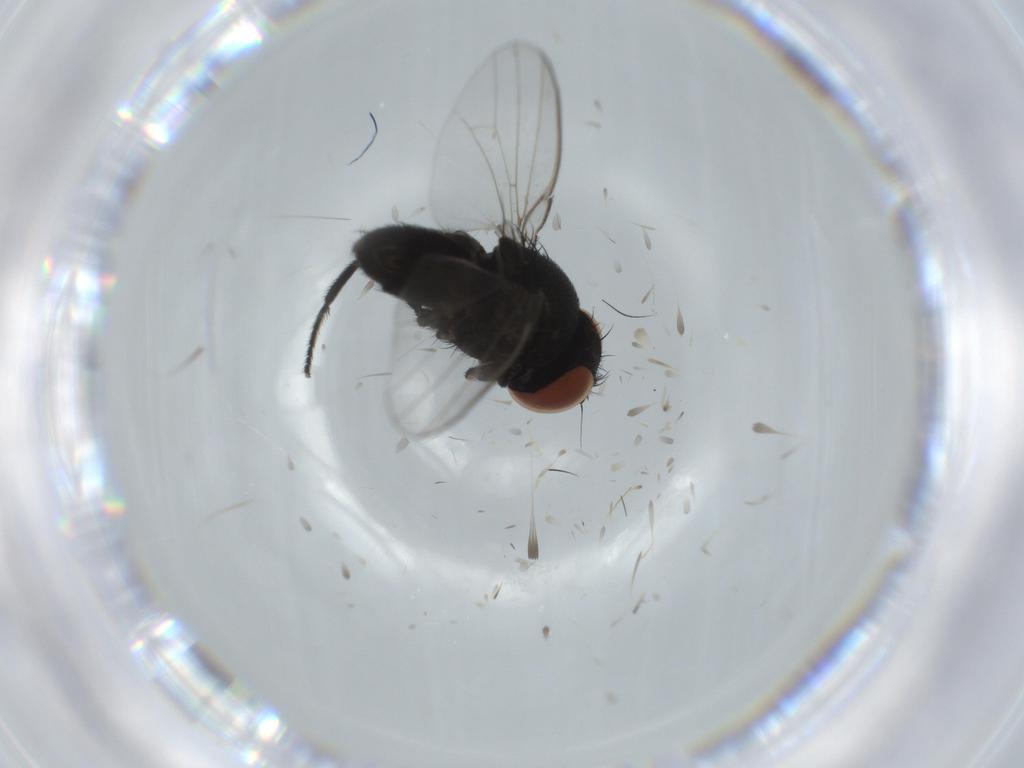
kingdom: Animalia
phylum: Arthropoda
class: Insecta
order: Diptera
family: Milichiidae
